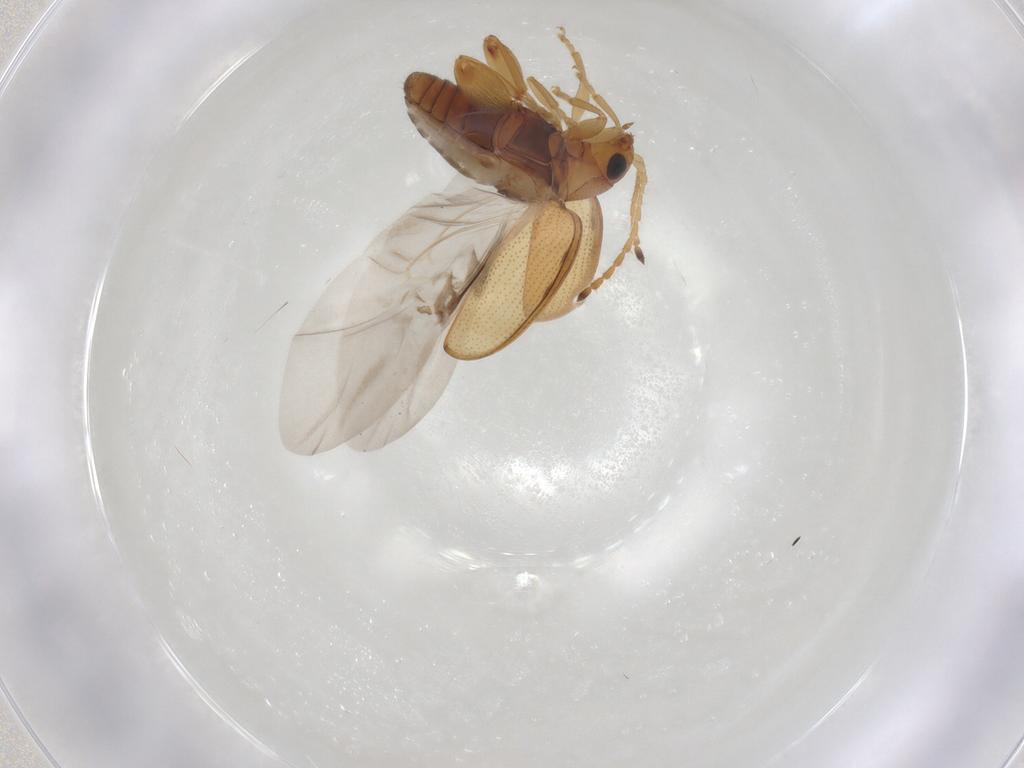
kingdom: Animalia
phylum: Arthropoda
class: Insecta
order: Coleoptera
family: Chrysomelidae
